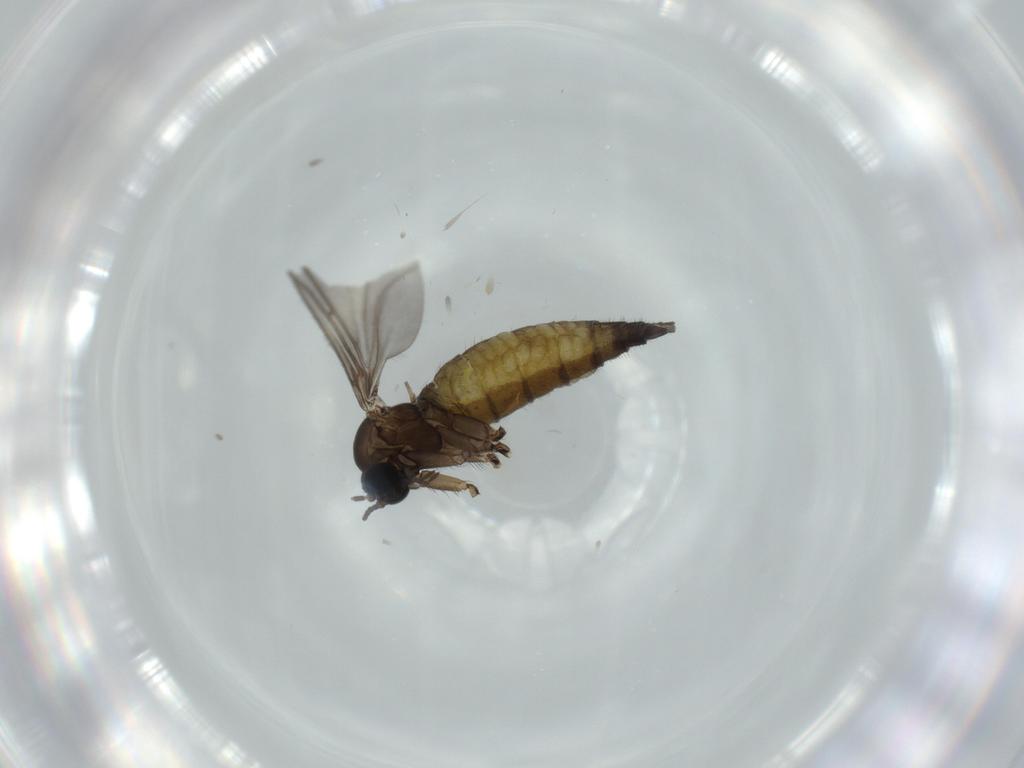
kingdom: Animalia
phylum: Arthropoda
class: Insecta
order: Diptera
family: Sciaridae
